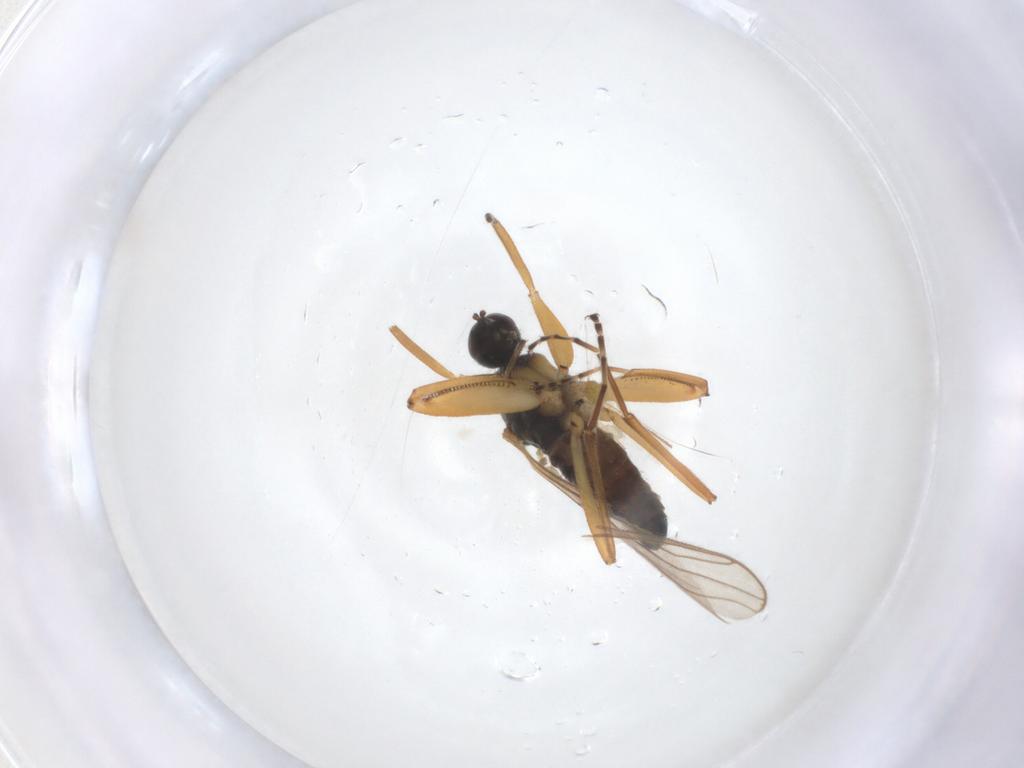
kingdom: Animalia
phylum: Arthropoda
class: Insecta
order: Diptera
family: Hybotidae
